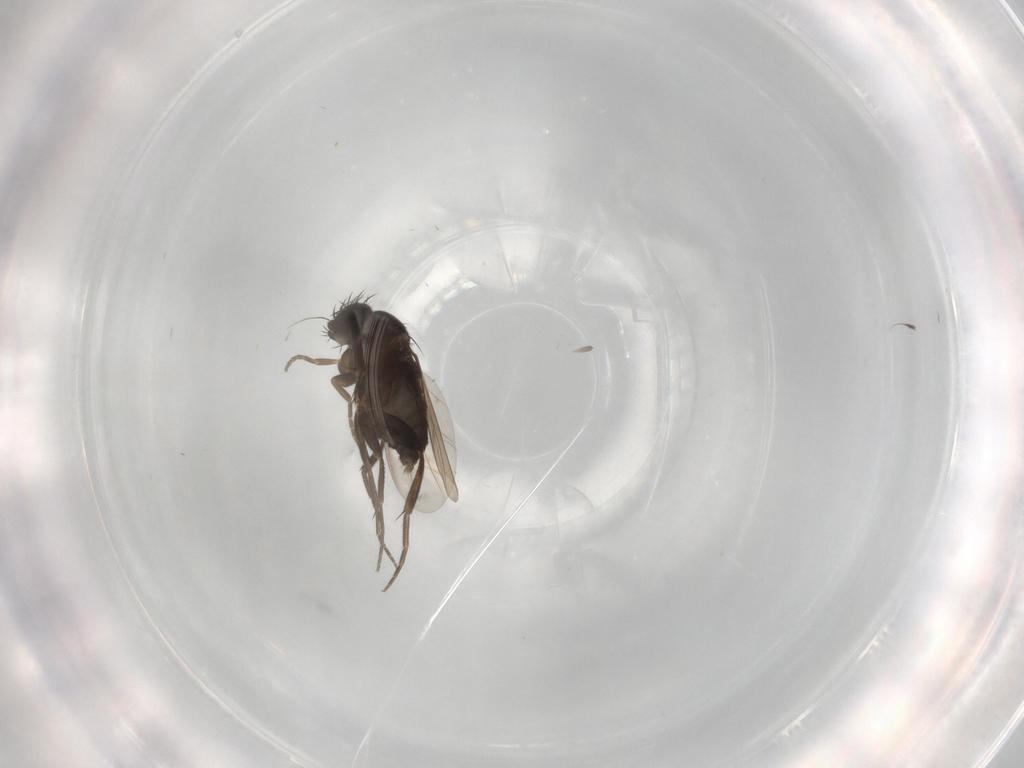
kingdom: Animalia
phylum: Arthropoda
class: Insecta
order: Diptera
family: Phoridae
